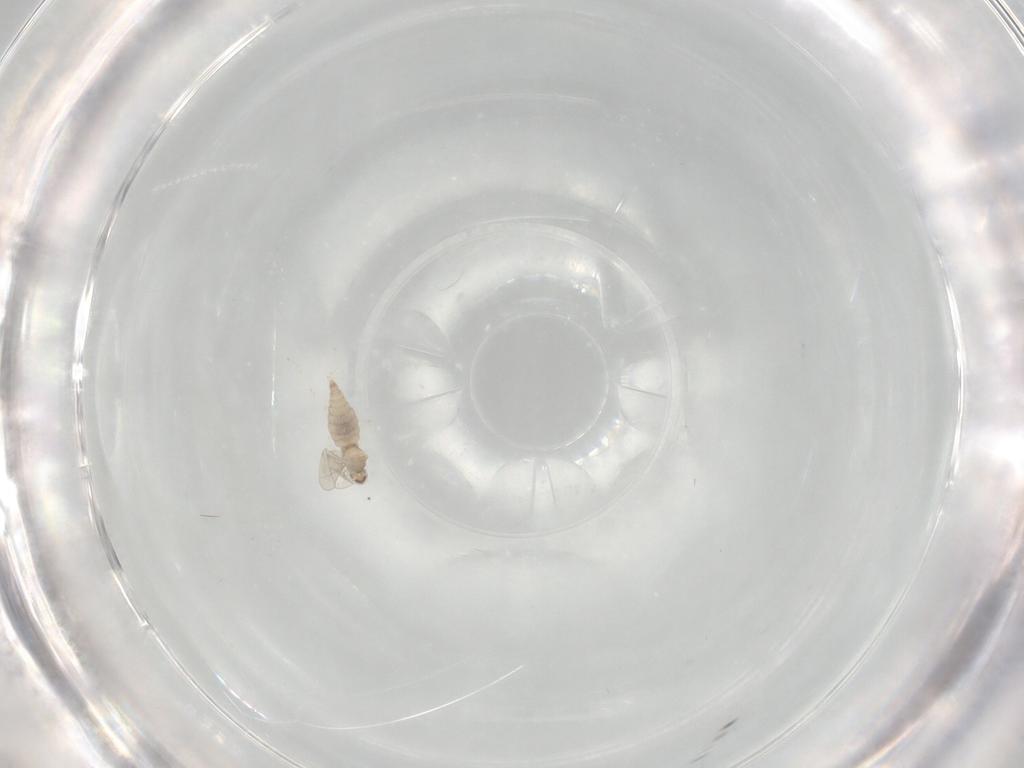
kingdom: Animalia
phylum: Arthropoda
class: Insecta
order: Diptera
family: Cecidomyiidae
